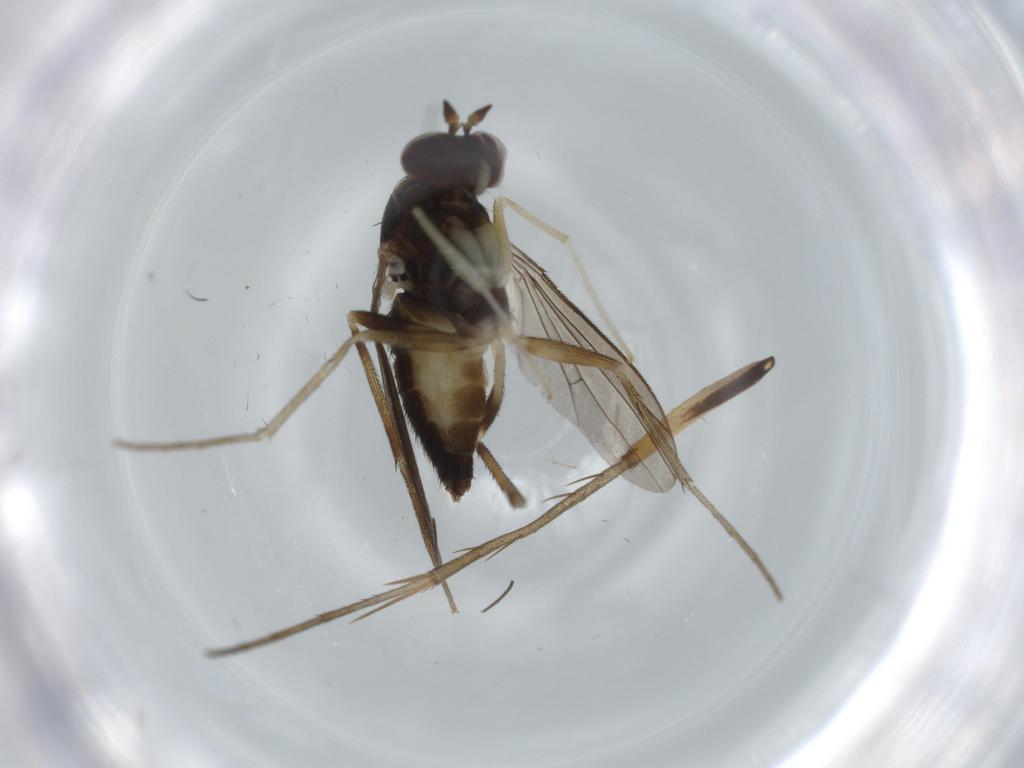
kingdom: Animalia
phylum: Arthropoda
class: Insecta
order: Diptera
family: Dolichopodidae
